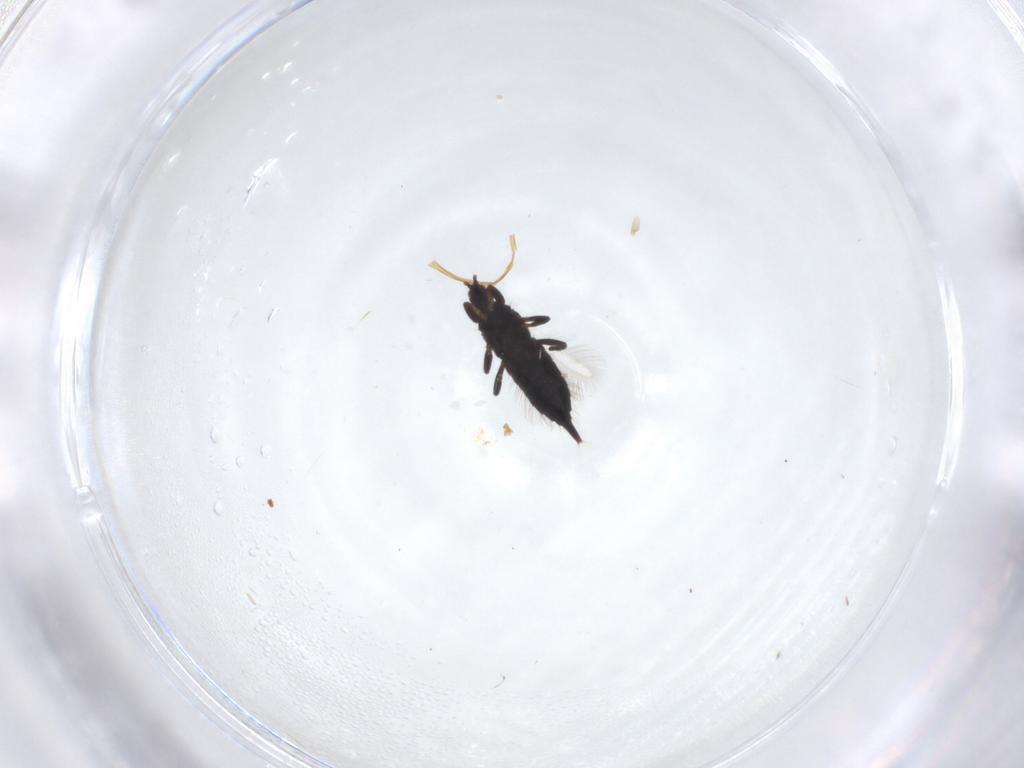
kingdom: Animalia
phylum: Arthropoda
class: Insecta
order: Thysanoptera
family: Phlaeothripidae
